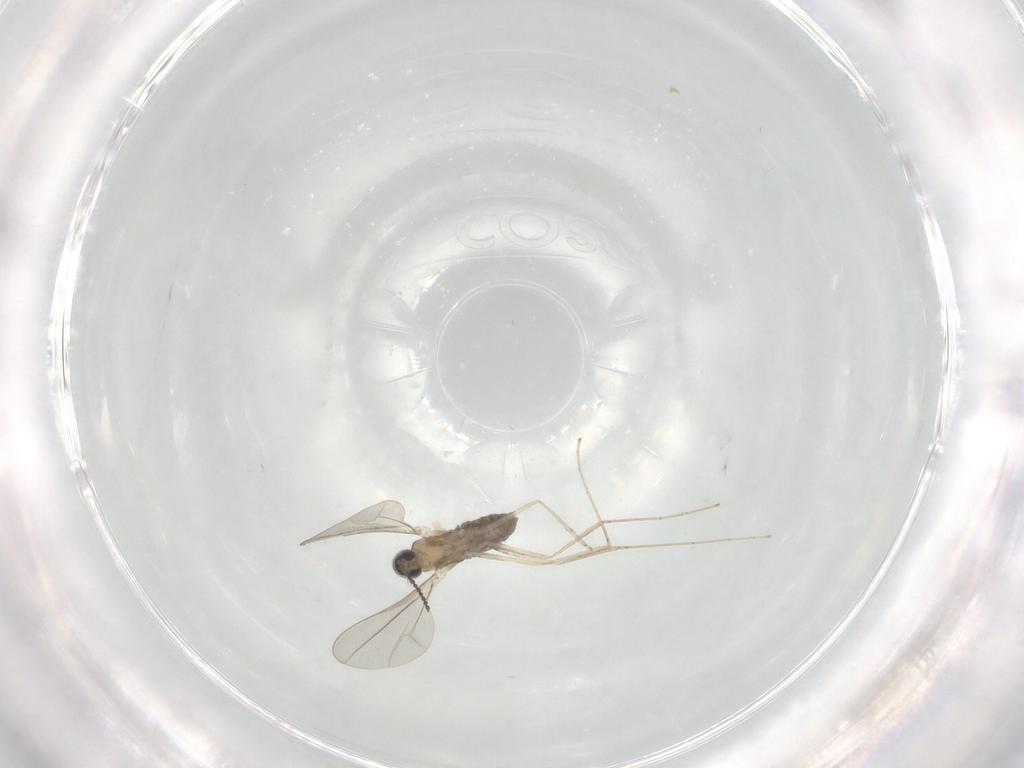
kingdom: Animalia
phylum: Arthropoda
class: Insecta
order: Diptera
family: Cecidomyiidae
